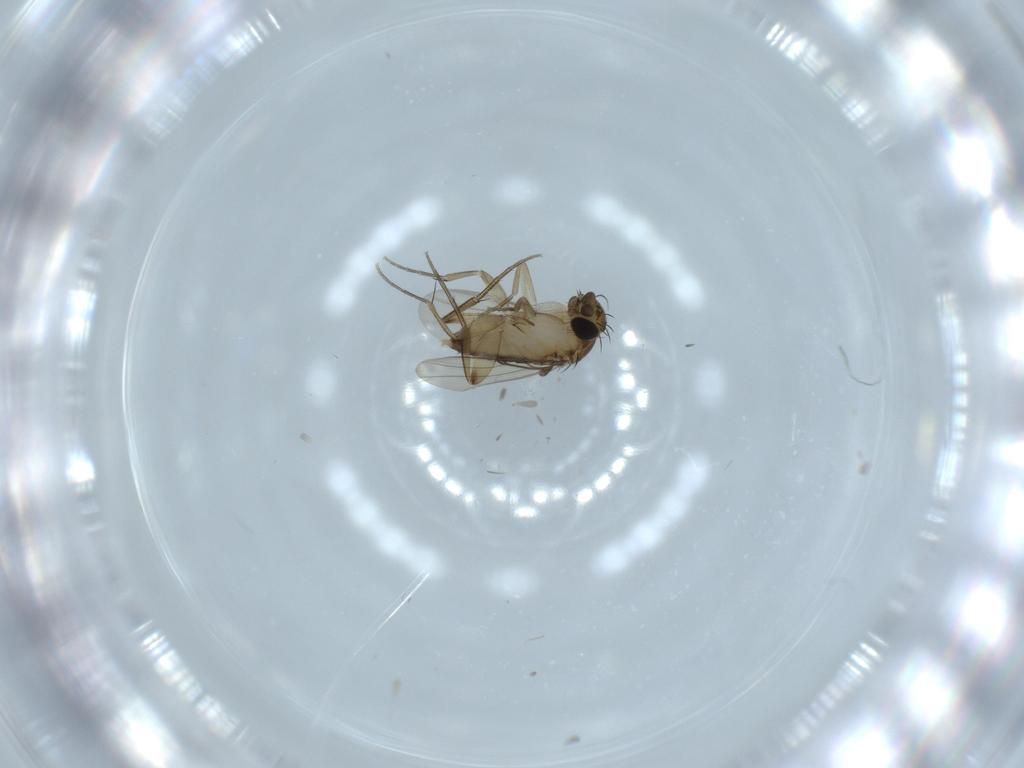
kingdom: Animalia
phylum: Arthropoda
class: Insecta
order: Diptera
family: Phoridae
